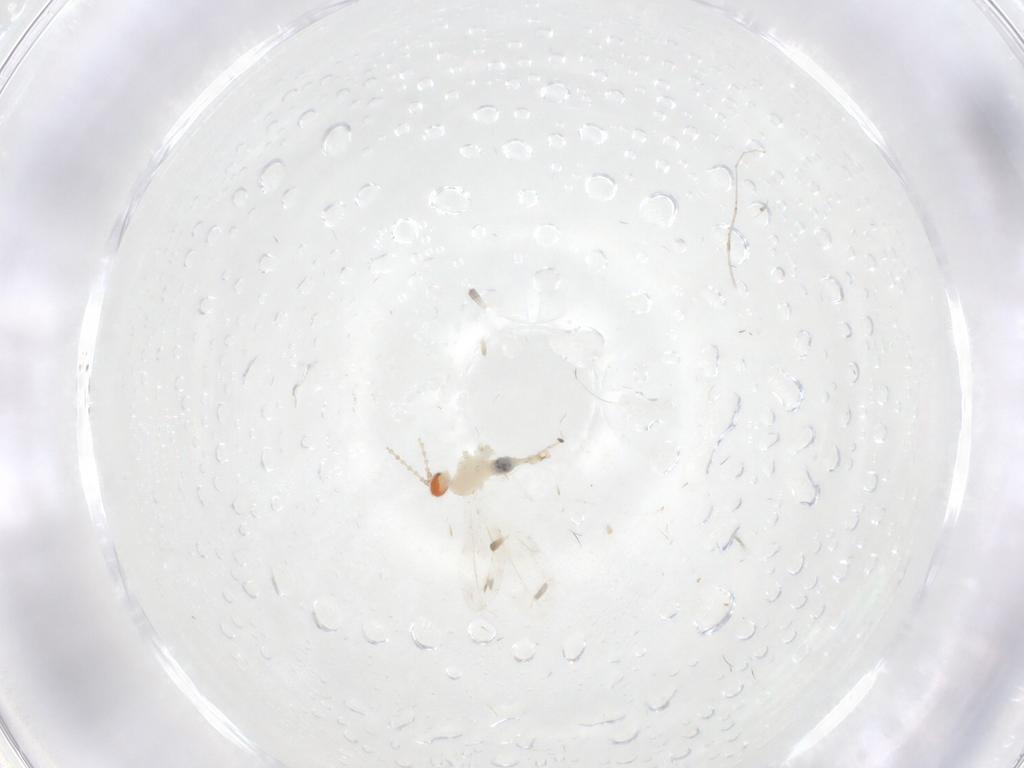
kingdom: Animalia
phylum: Arthropoda
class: Insecta
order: Diptera
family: Cecidomyiidae
